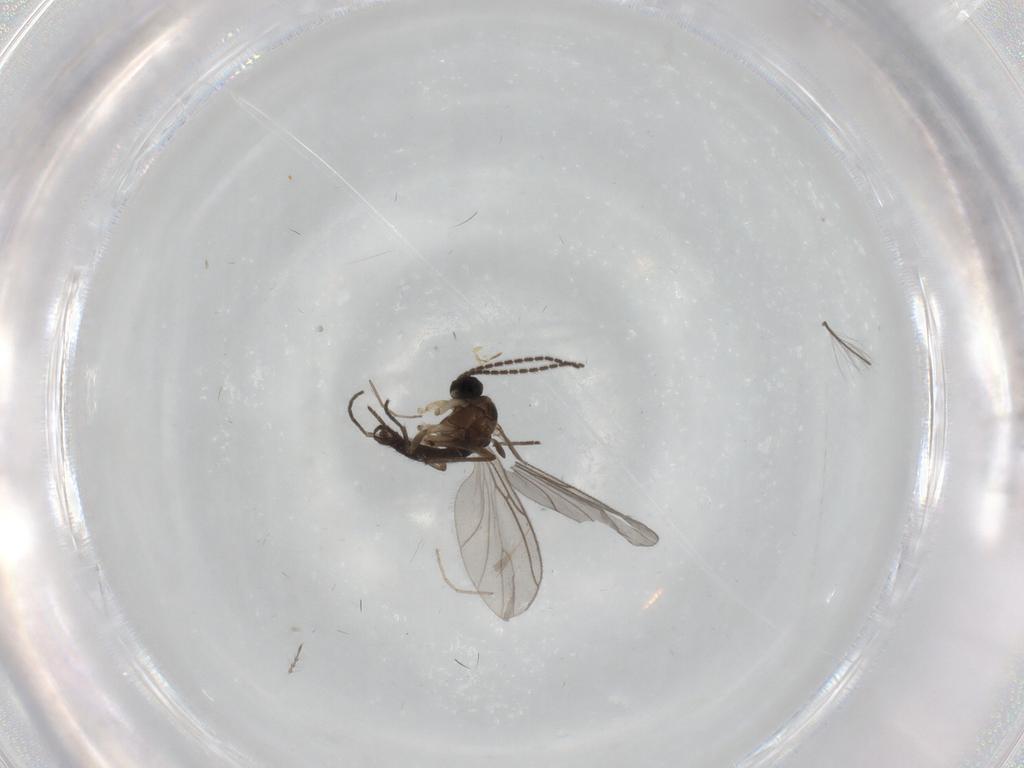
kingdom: Animalia
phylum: Arthropoda
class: Insecta
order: Diptera
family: Sciaridae
